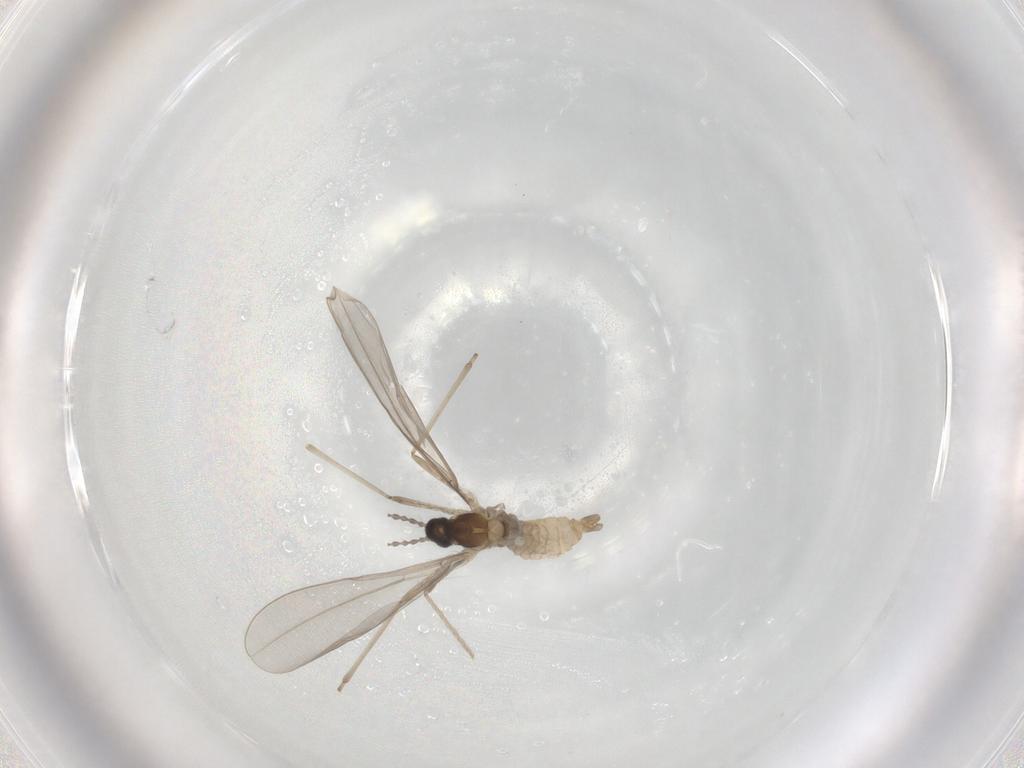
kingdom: Animalia
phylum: Arthropoda
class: Insecta
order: Diptera
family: Cecidomyiidae
